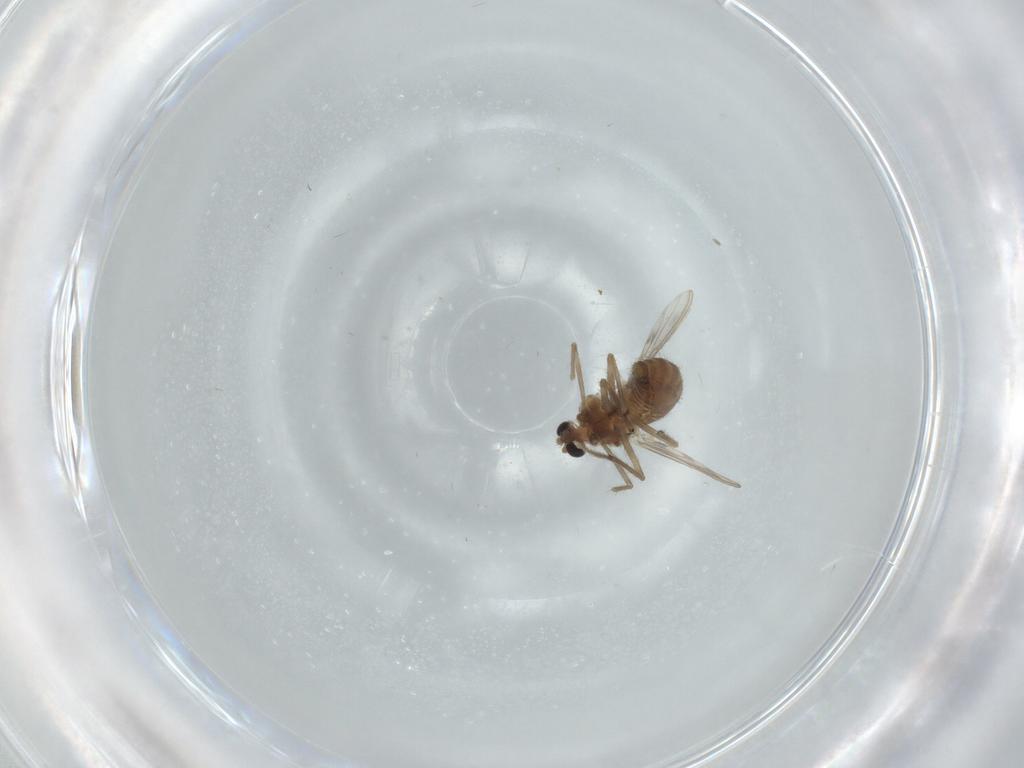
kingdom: Animalia
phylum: Arthropoda
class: Insecta
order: Diptera
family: Chironomidae
